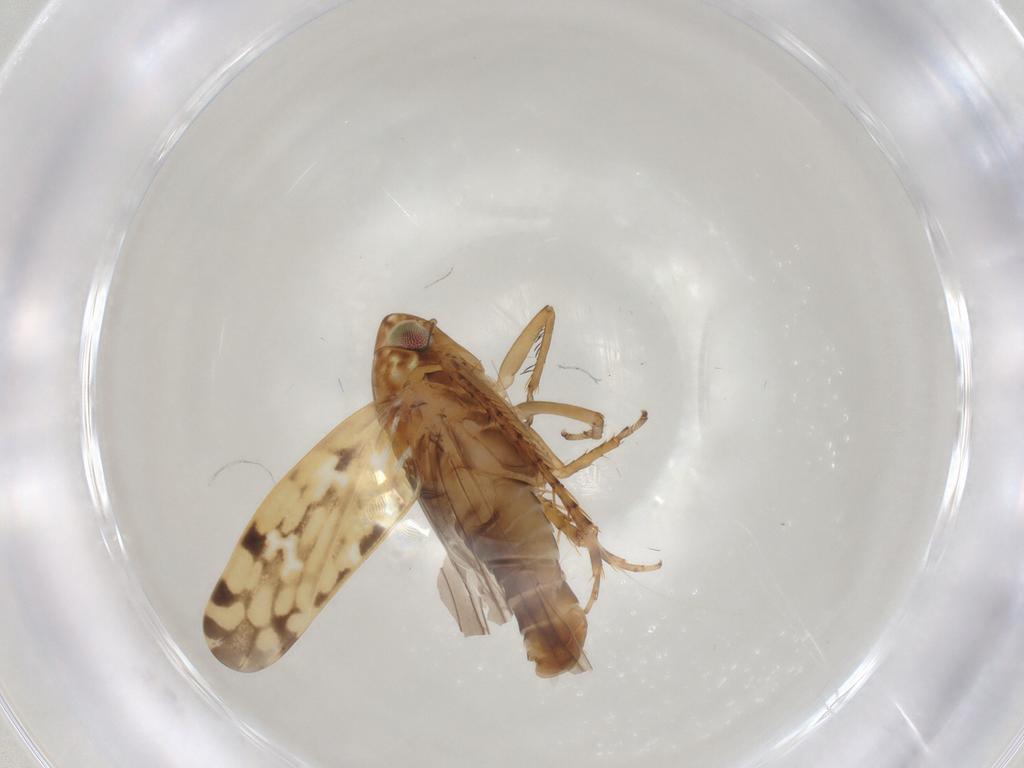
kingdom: Animalia
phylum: Arthropoda
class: Insecta
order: Hemiptera
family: Cicadellidae
